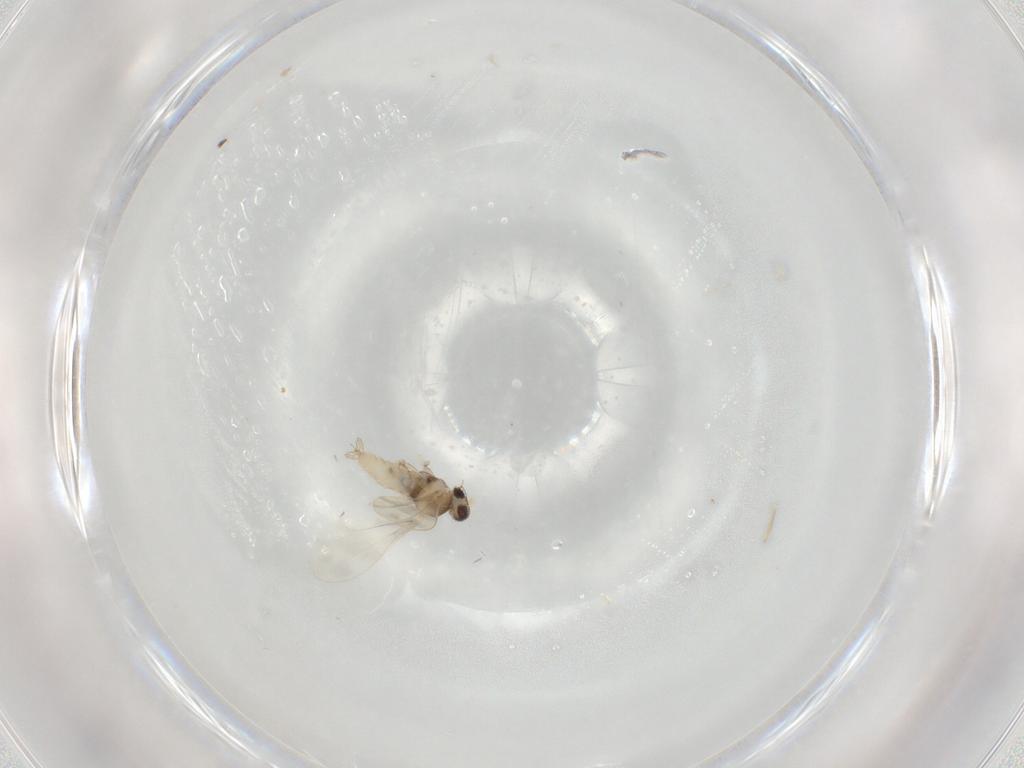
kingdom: Animalia
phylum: Arthropoda
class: Insecta
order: Diptera
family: Cecidomyiidae
